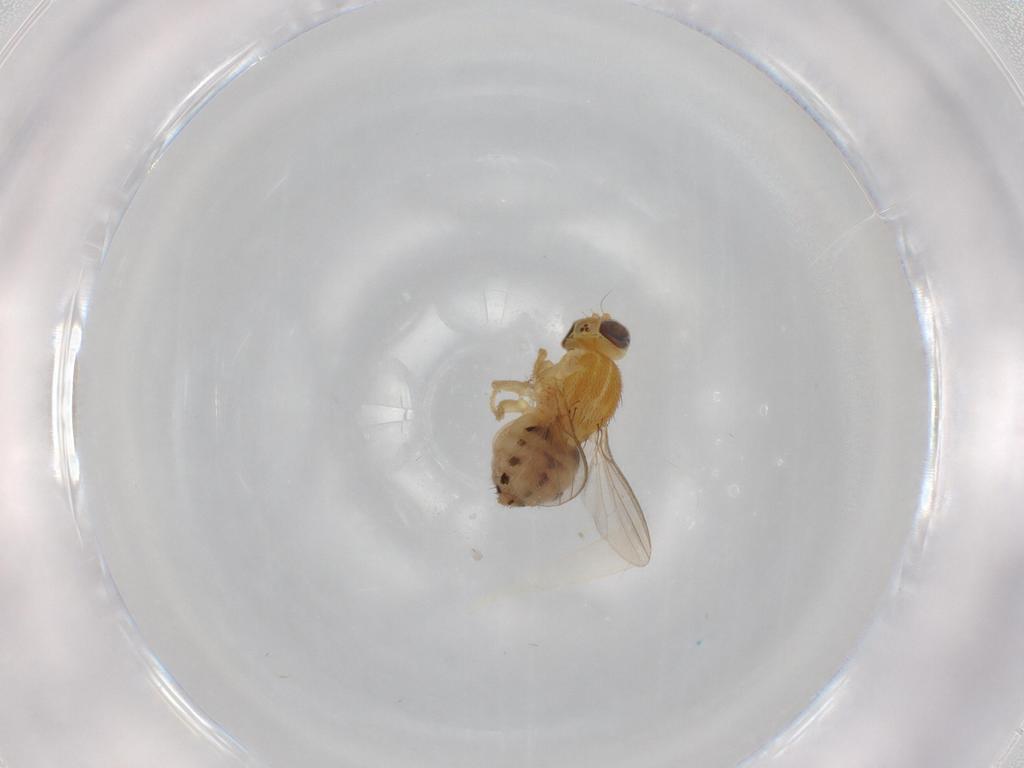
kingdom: Animalia
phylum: Arthropoda
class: Insecta
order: Diptera
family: Chyromyidae
